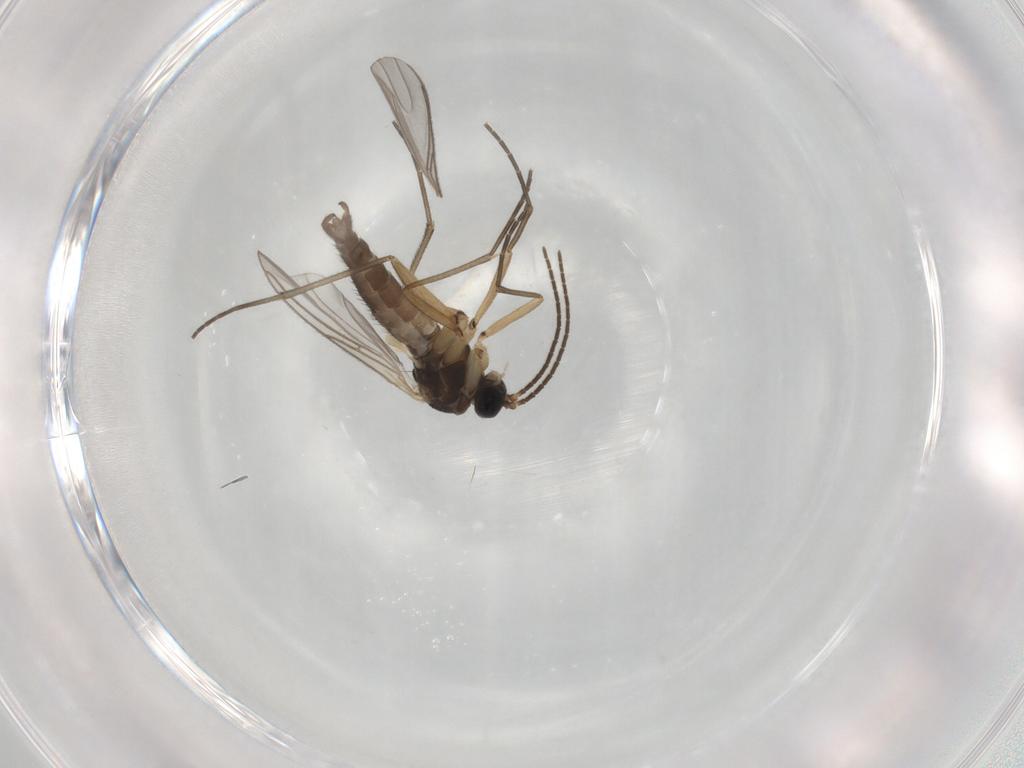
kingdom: Animalia
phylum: Arthropoda
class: Insecta
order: Diptera
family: Sciaridae
